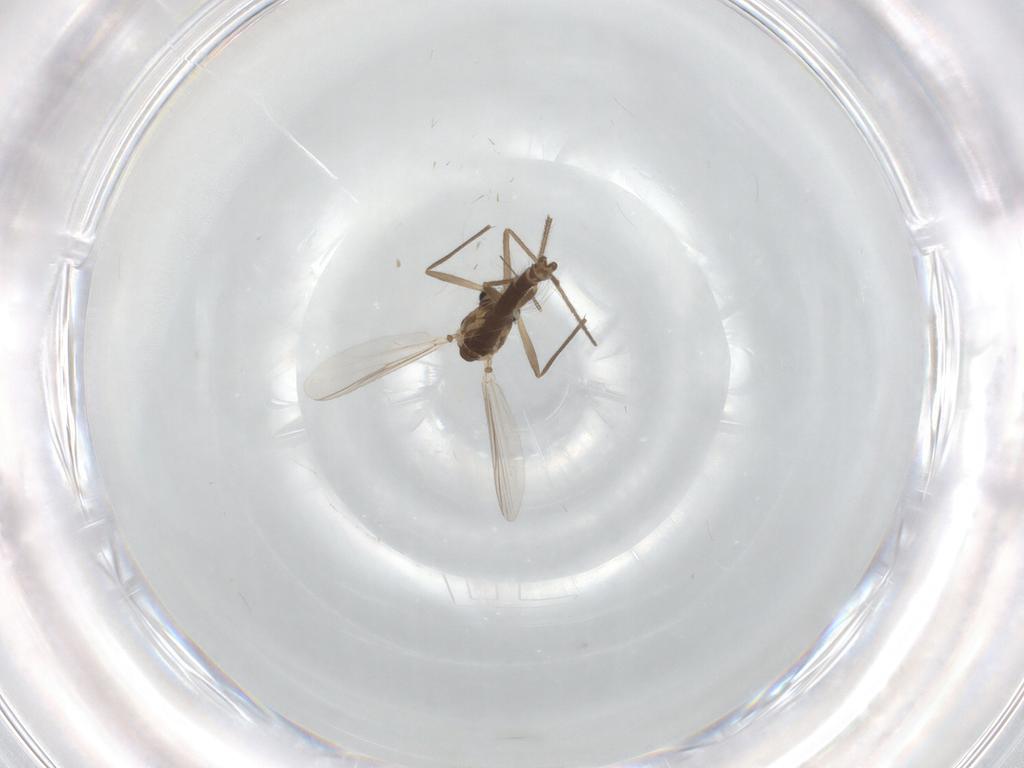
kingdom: Animalia
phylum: Arthropoda
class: Insecta
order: Diptera
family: Chironomidae
